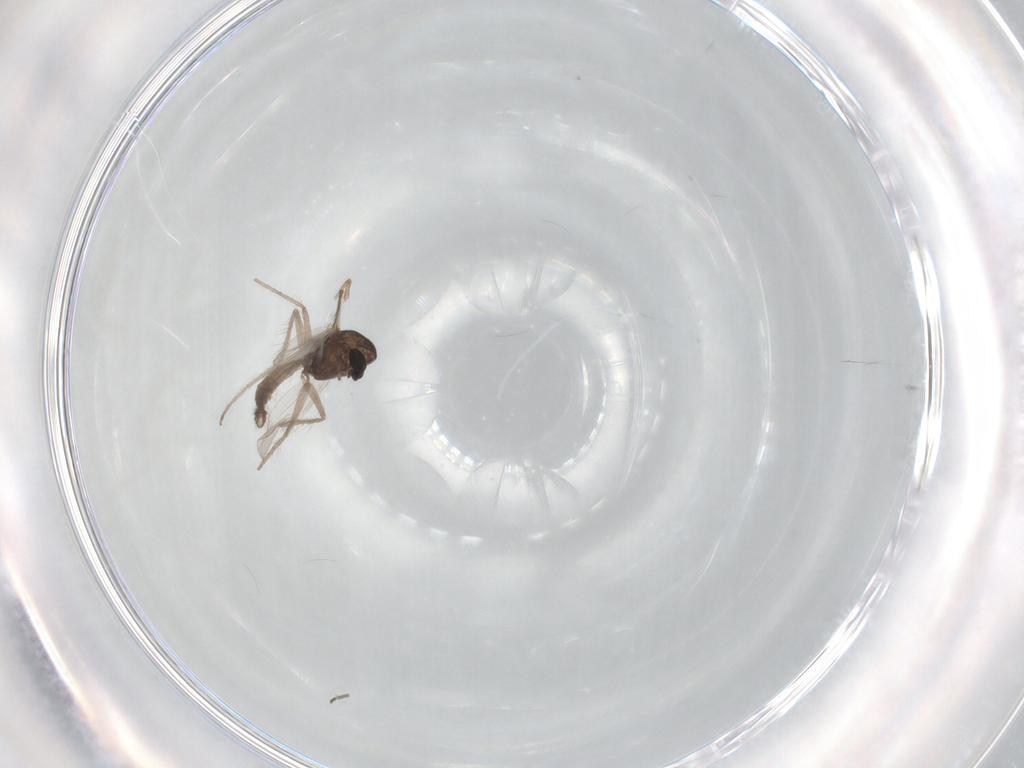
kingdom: Animalia
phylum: Arthropoda
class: Insecta
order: Diptera
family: Chironomidae
